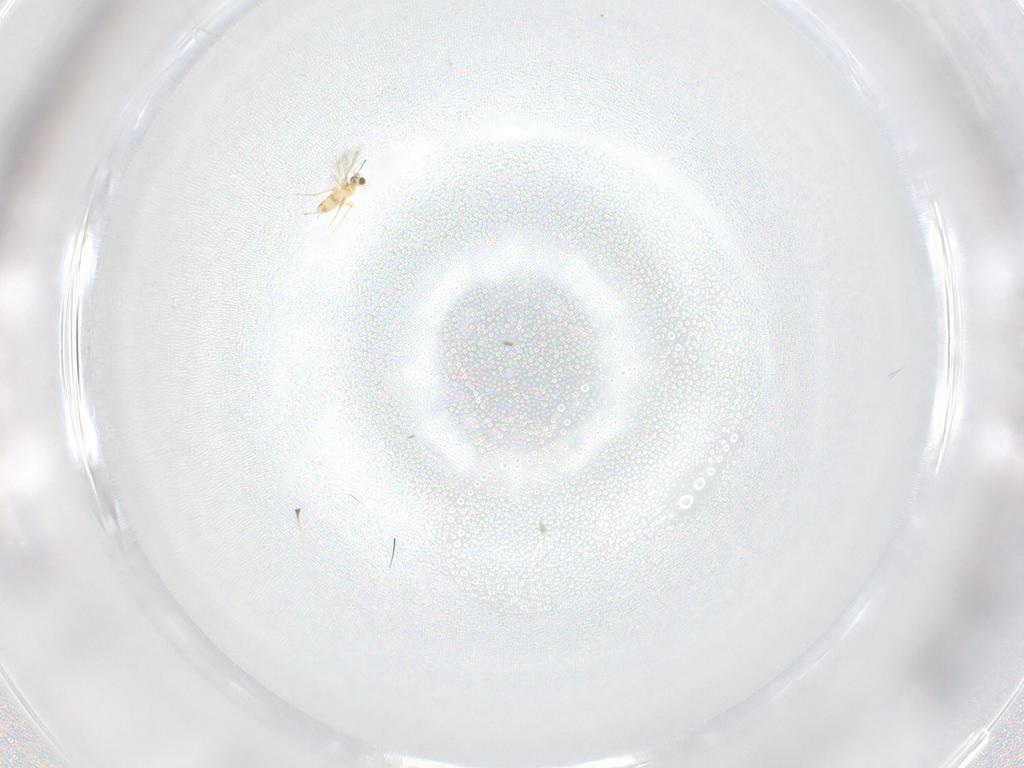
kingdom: Animalia
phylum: Arthropoda
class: Insecta
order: Hymenoptera
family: Mymaridae
